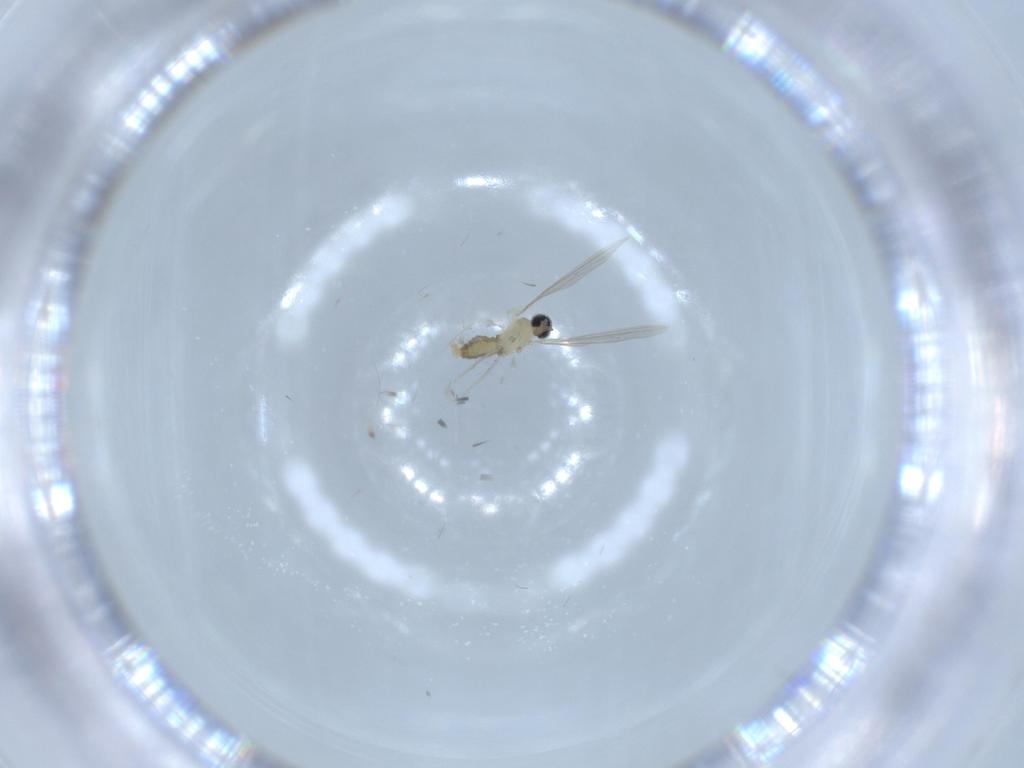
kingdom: Animalia
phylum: Arthropoda
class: Insecta
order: Diptera
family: Cecidomyiidae
